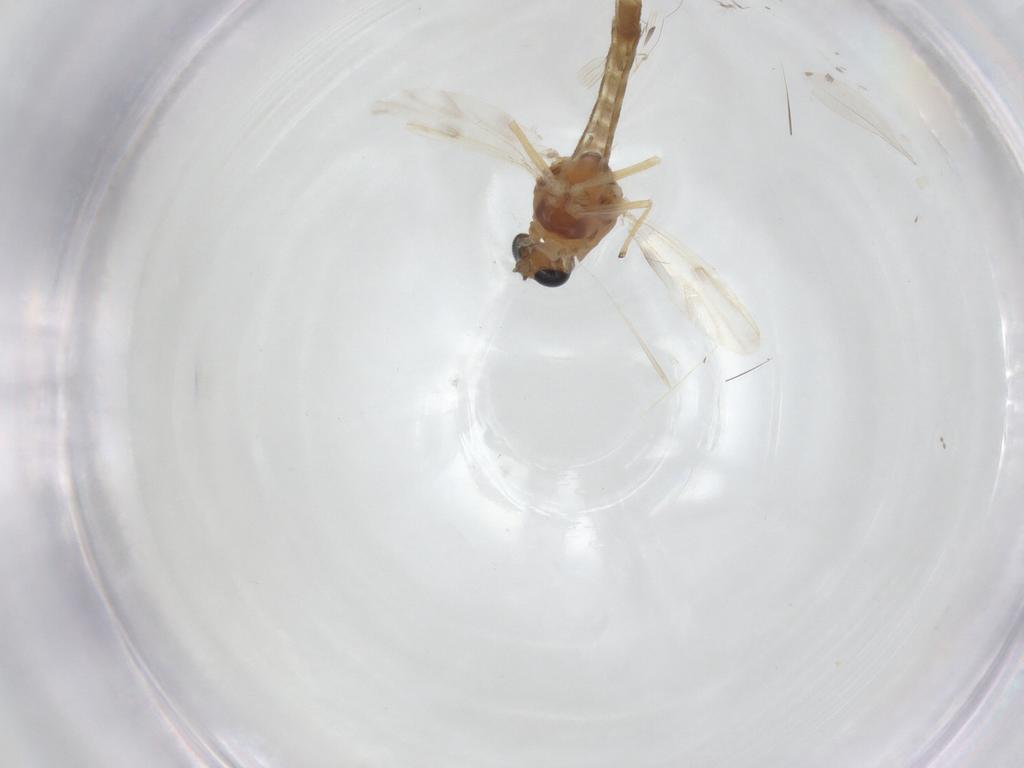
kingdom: Animalia
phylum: Arthropoda
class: Insecta
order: Diptera
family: Chironomidae
